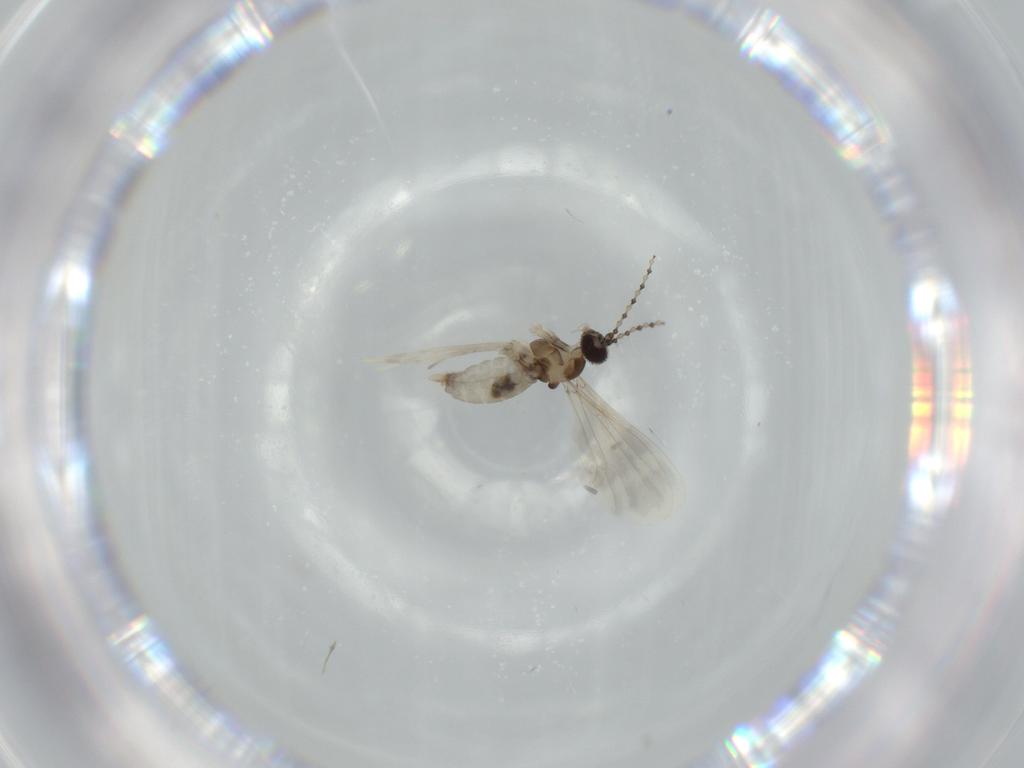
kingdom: Animalia
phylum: Arthropoda
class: Insecta
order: Diptera
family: Cecidomyiidae
